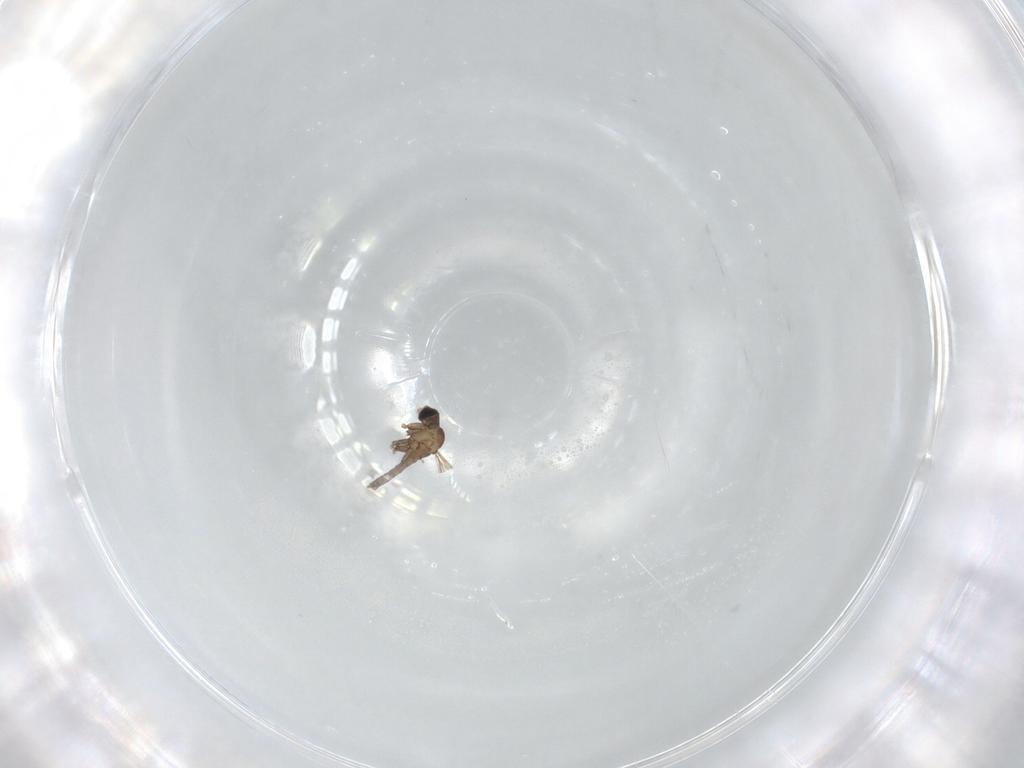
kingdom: Animalia
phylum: Arthropoda
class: Insecta
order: Diptera
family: Sciaridae
